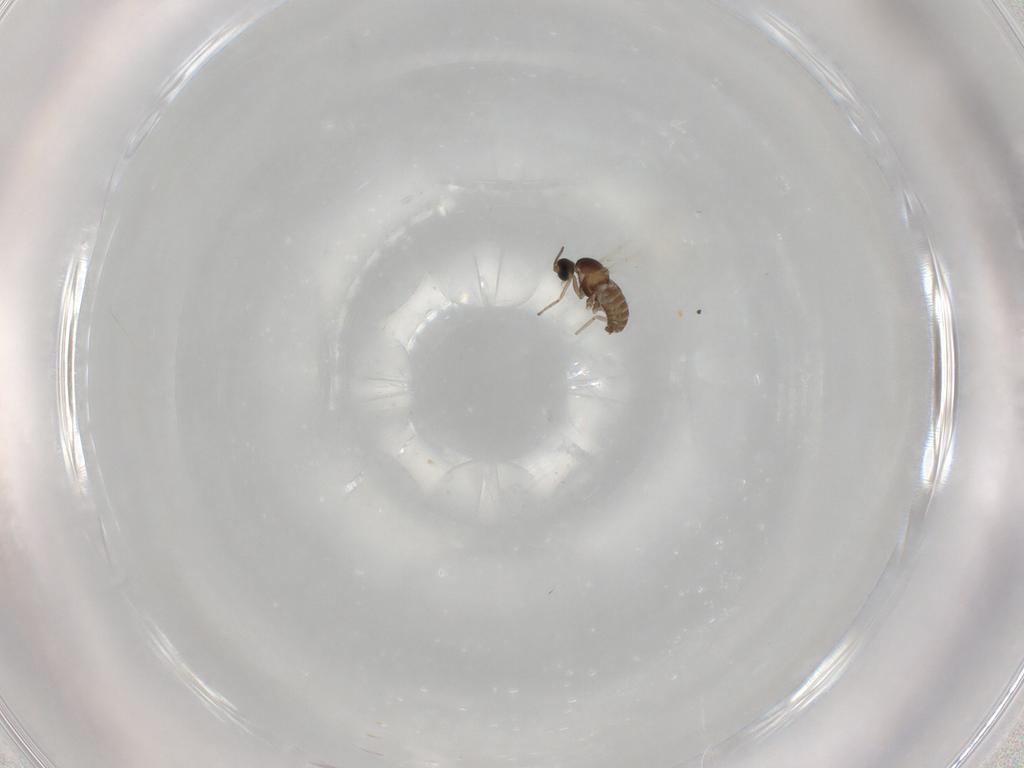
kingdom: Animalia
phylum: Arthropoda
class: Insecta
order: Diptera
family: Cecidomyiidae
